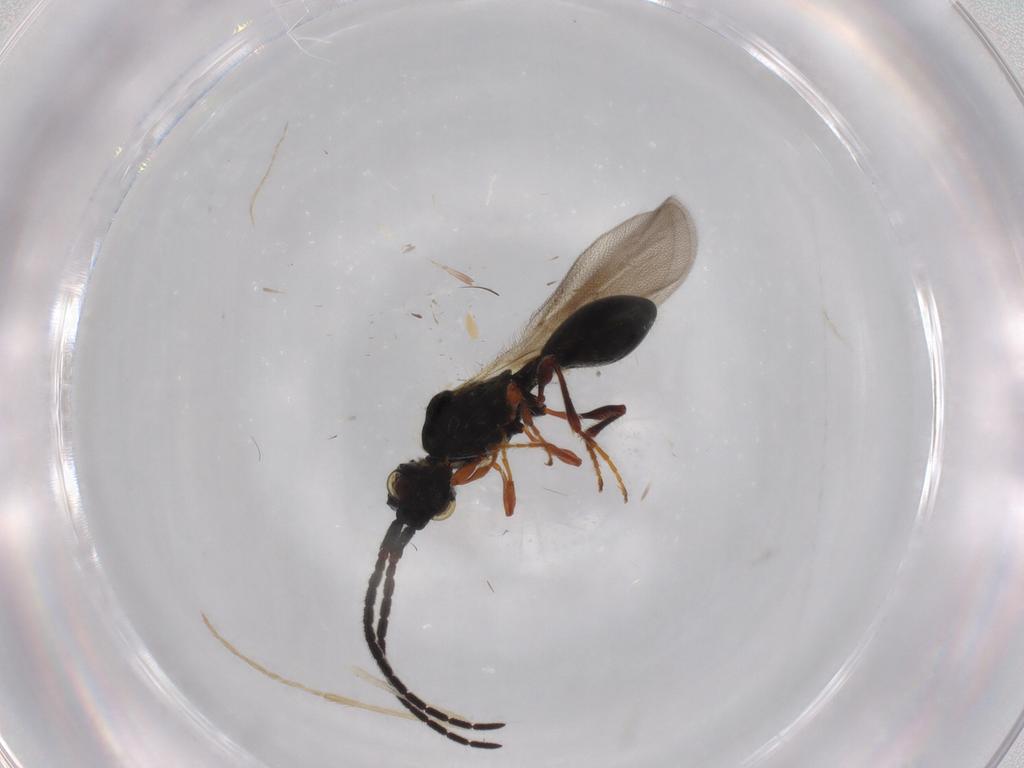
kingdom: Animalia
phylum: Arthropoda
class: Insecta
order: Hymenoptera
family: Diapriidae
